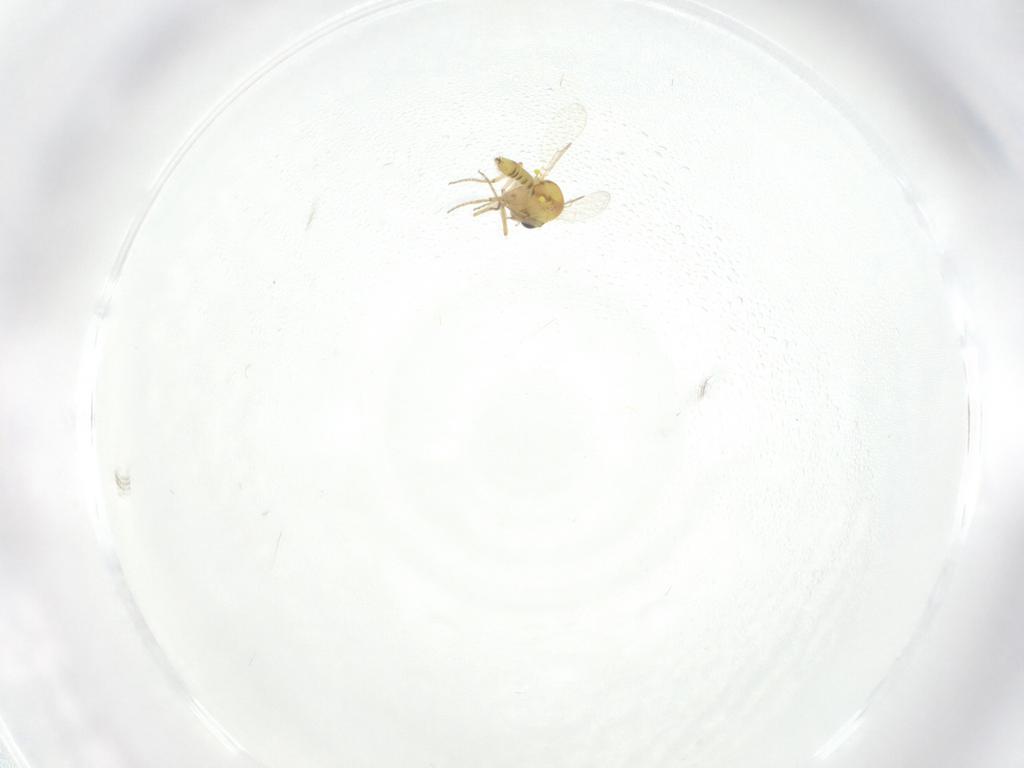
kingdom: Animalia
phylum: Arthropoda
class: Insecta
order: Diptera
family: Ceratopogonidae
